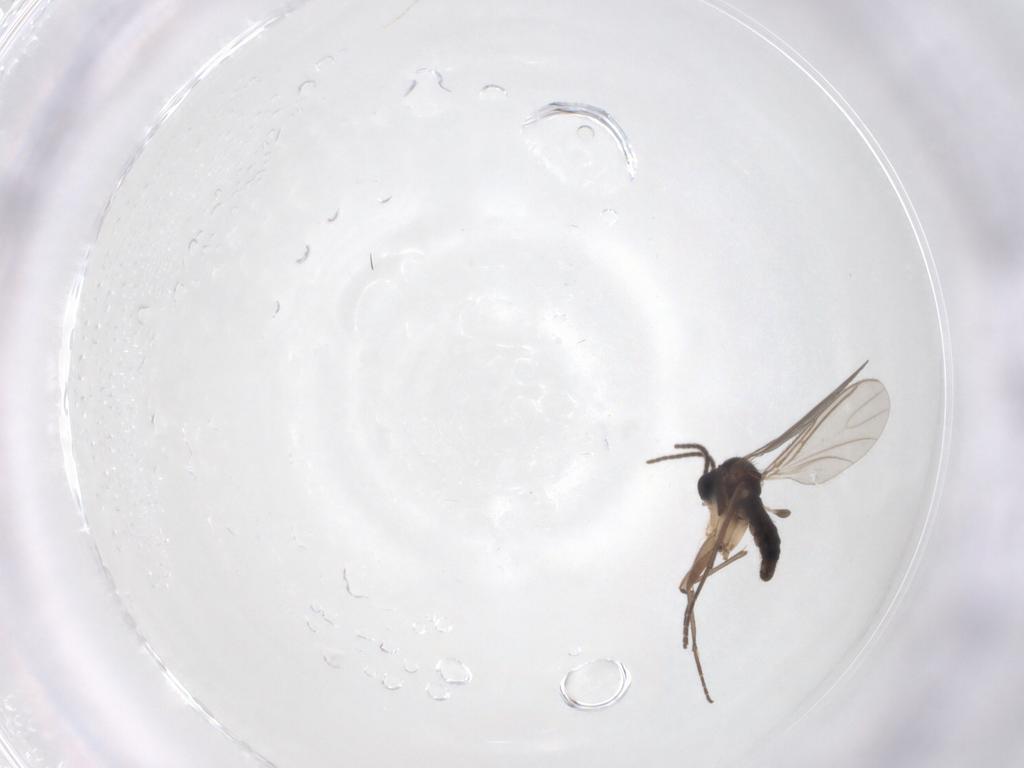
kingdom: Animalia
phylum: Arthropoda
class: Insecta
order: Diptera
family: Sciaridae
